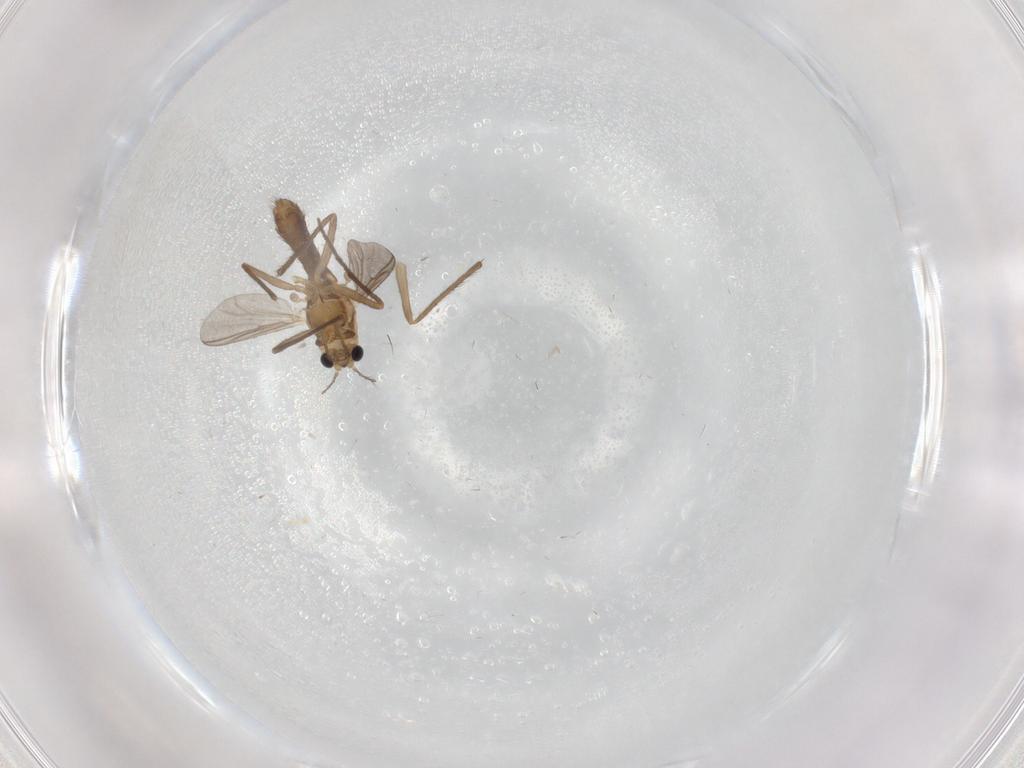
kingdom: Animalia
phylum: Arthropoda
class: Insecta
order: Diptera
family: Chironomidae
